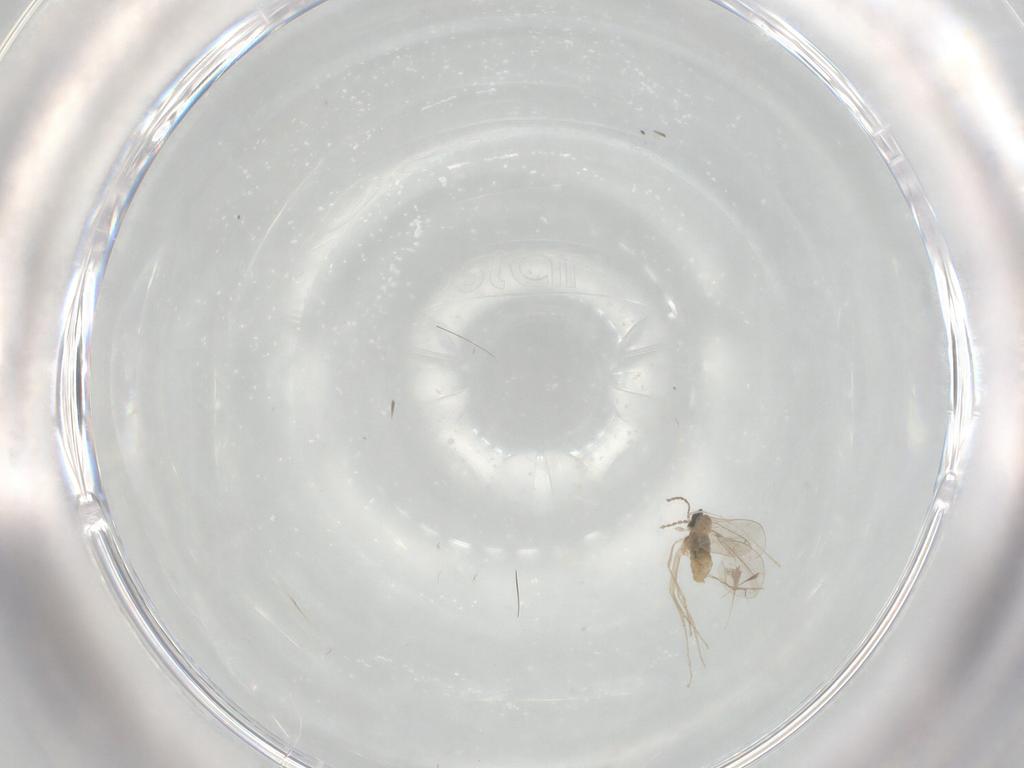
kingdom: Animalia
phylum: Arthropoda
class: Insecta
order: Diptera
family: Cecidomyiidae
